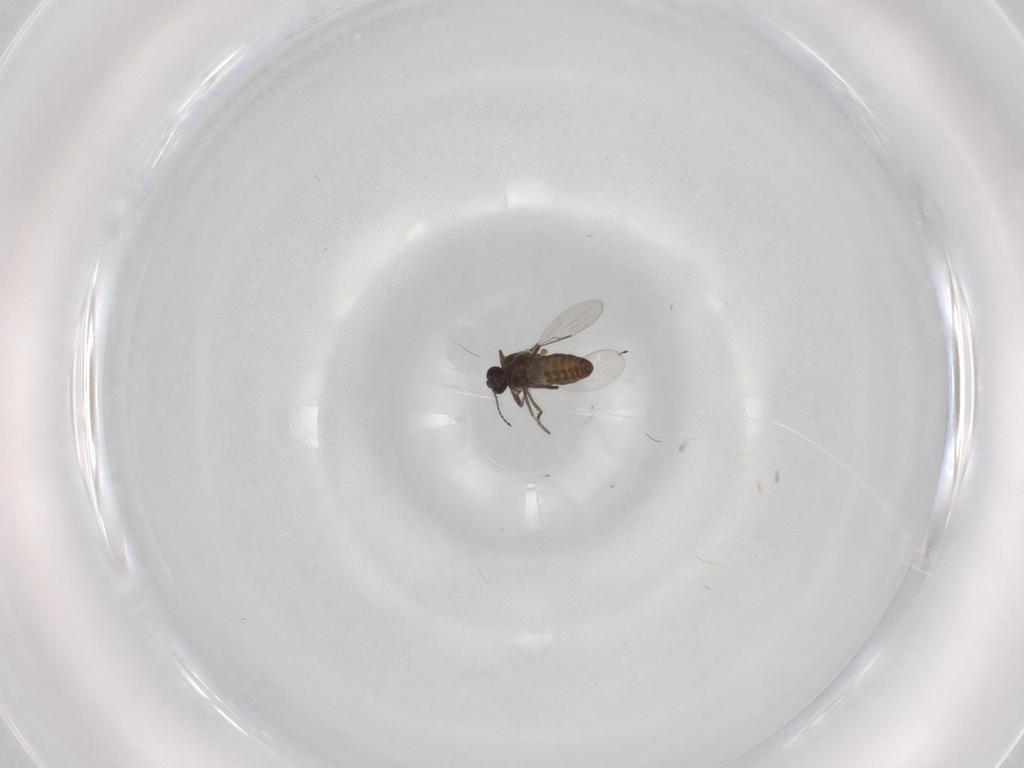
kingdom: Animalia
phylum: Arthropoda
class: Insecta
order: Diptera
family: Ceratopogonidae
